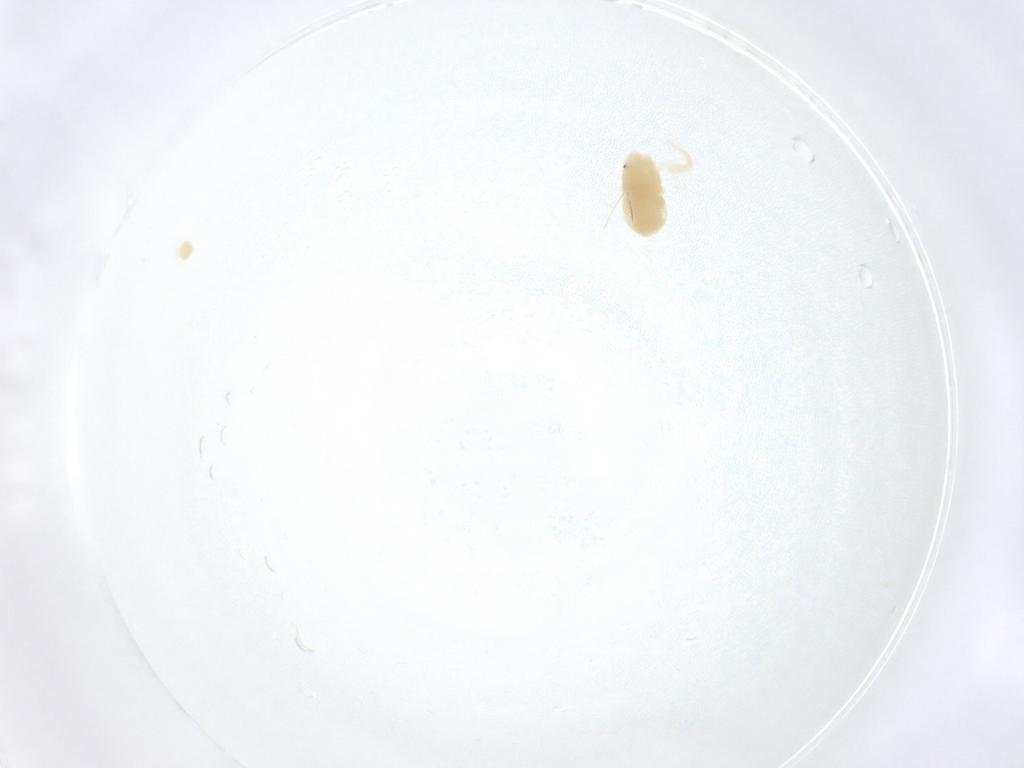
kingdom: Animalia
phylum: Arthropoda
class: Arachnida
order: Trombidiformes
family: Anystidae
